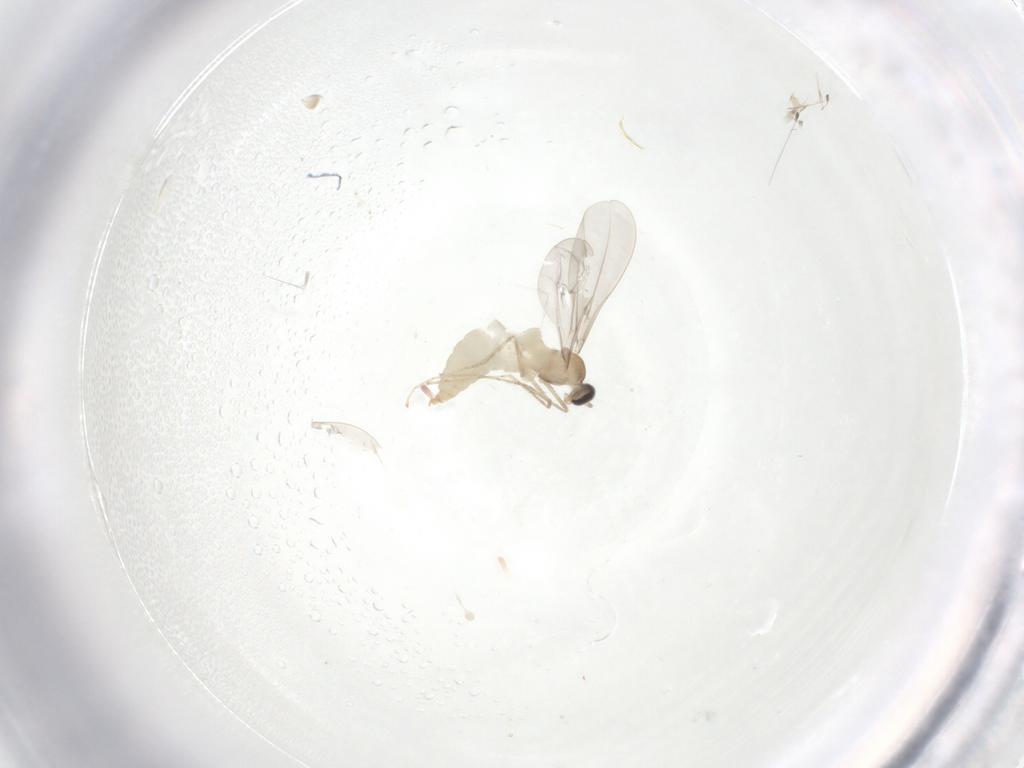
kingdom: Animalia
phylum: Arthropoda
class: Insecta
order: Diptera
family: Cecidomyiidae
